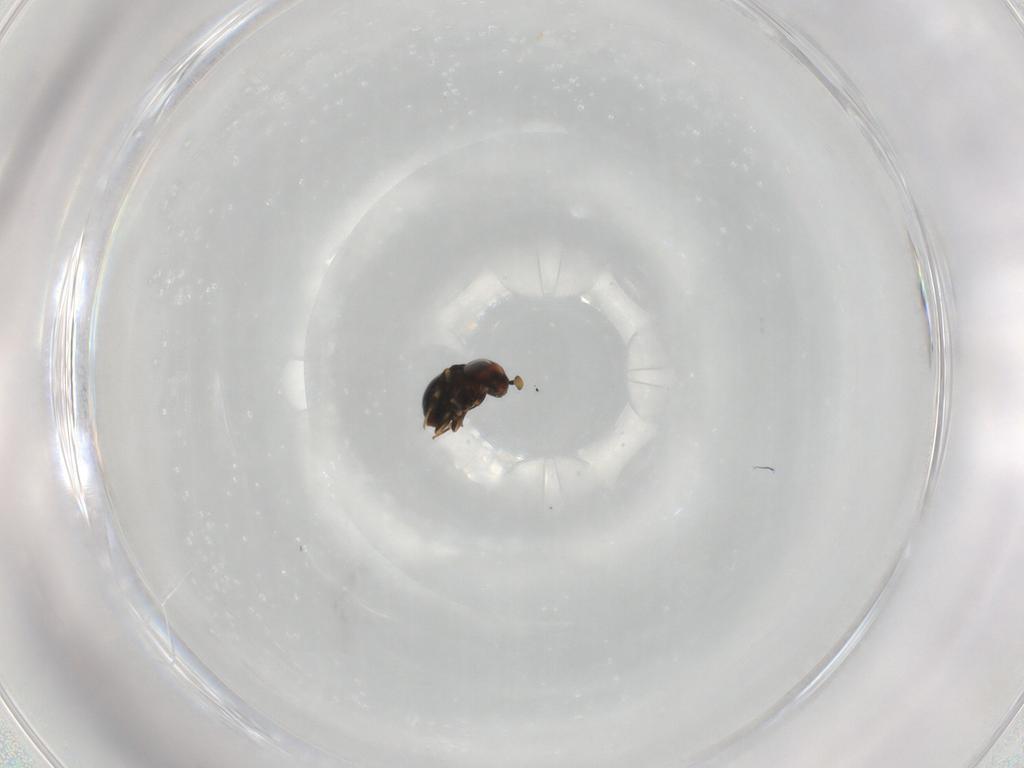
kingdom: Animalia
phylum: Arthropoda
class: Insecta
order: Hymenoptera
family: Scelionidae
